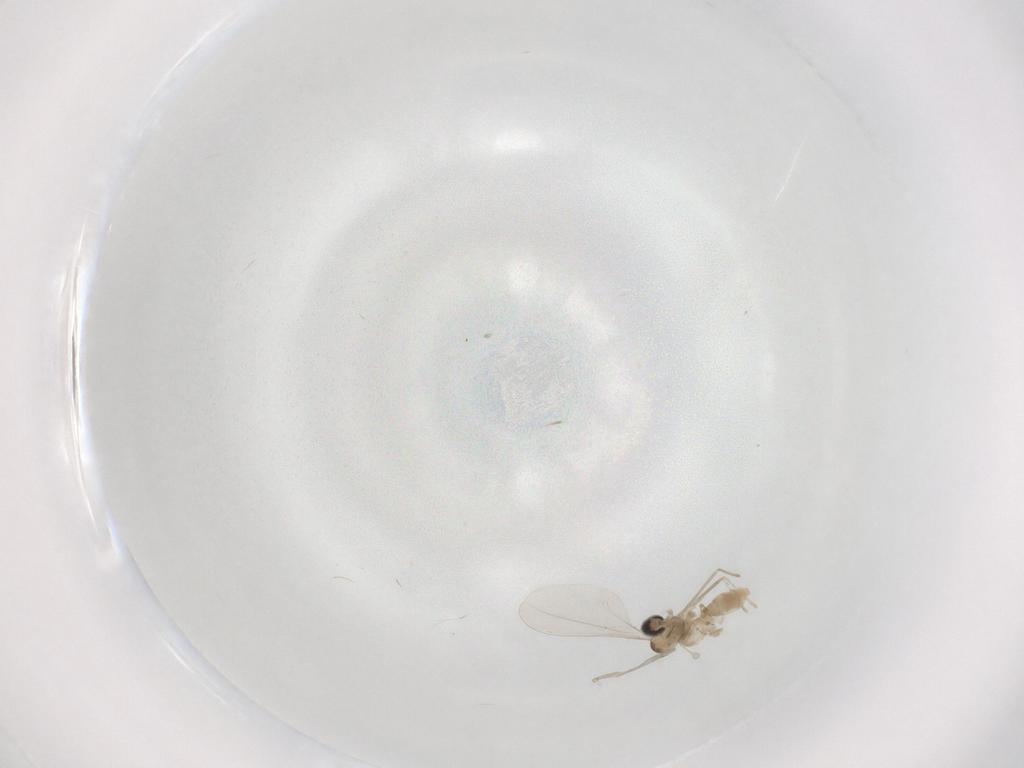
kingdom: Animalia
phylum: Arthropoda
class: Insecta
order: Diptera
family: Cecidomyiidae
